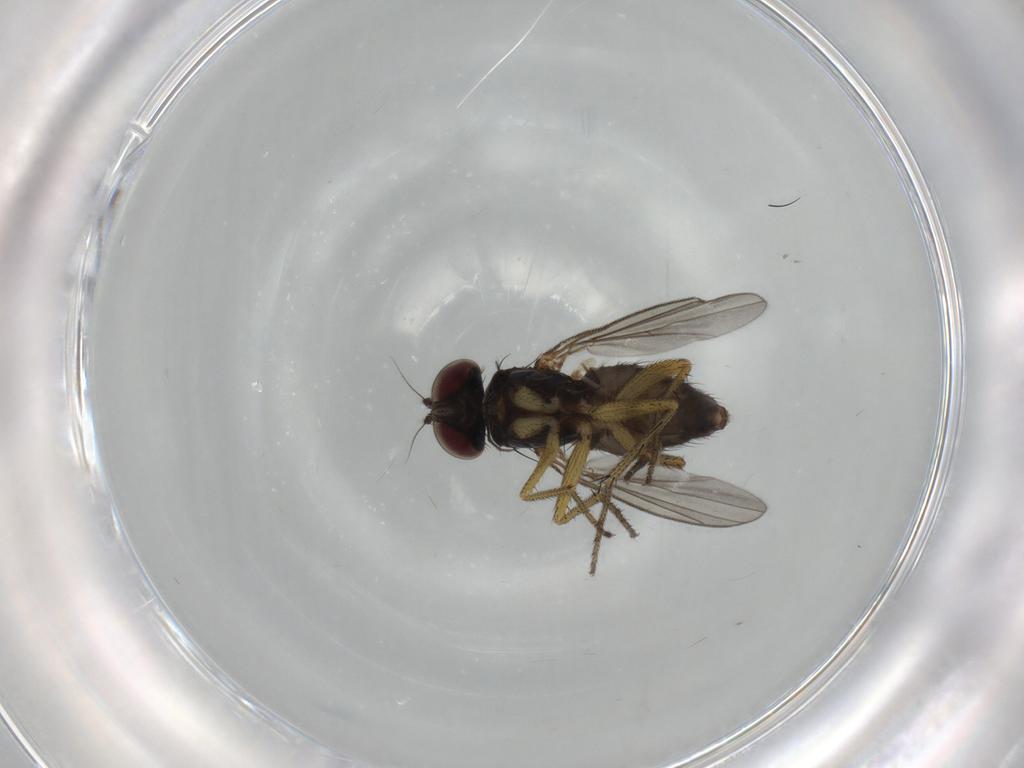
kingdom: Animalia
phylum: Arthropoda
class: Insecta
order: Diptera
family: Dolichopodidae
